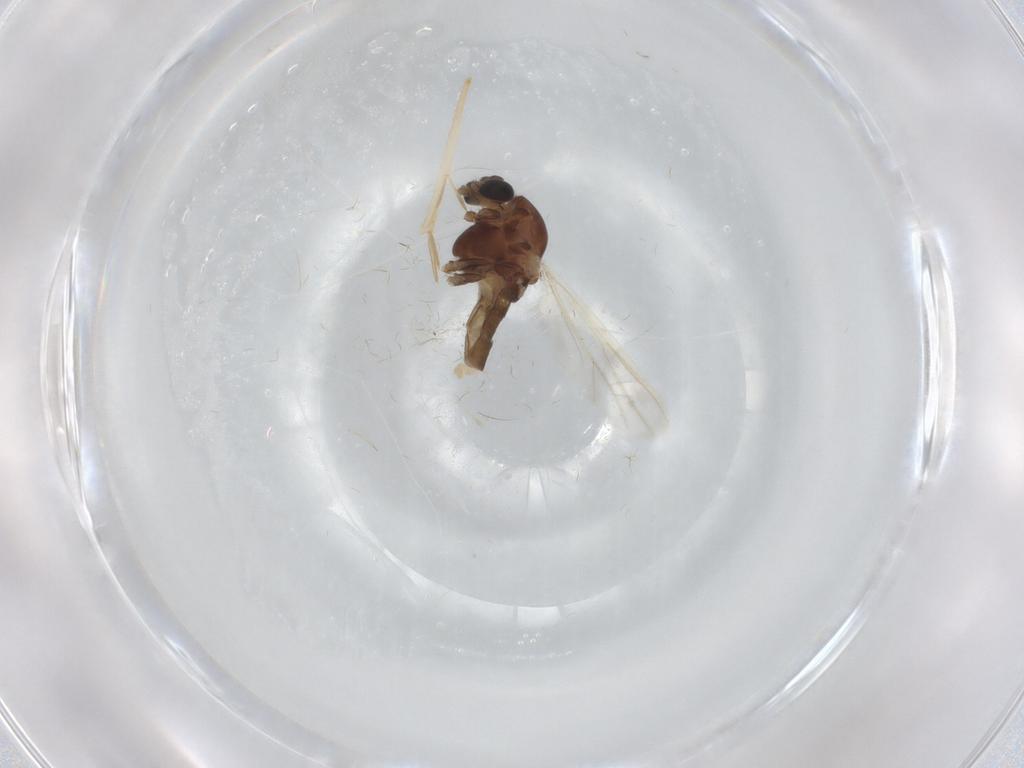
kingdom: Animalia
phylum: Arthropoda
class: Insecta
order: Diptera
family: Chironomidae
